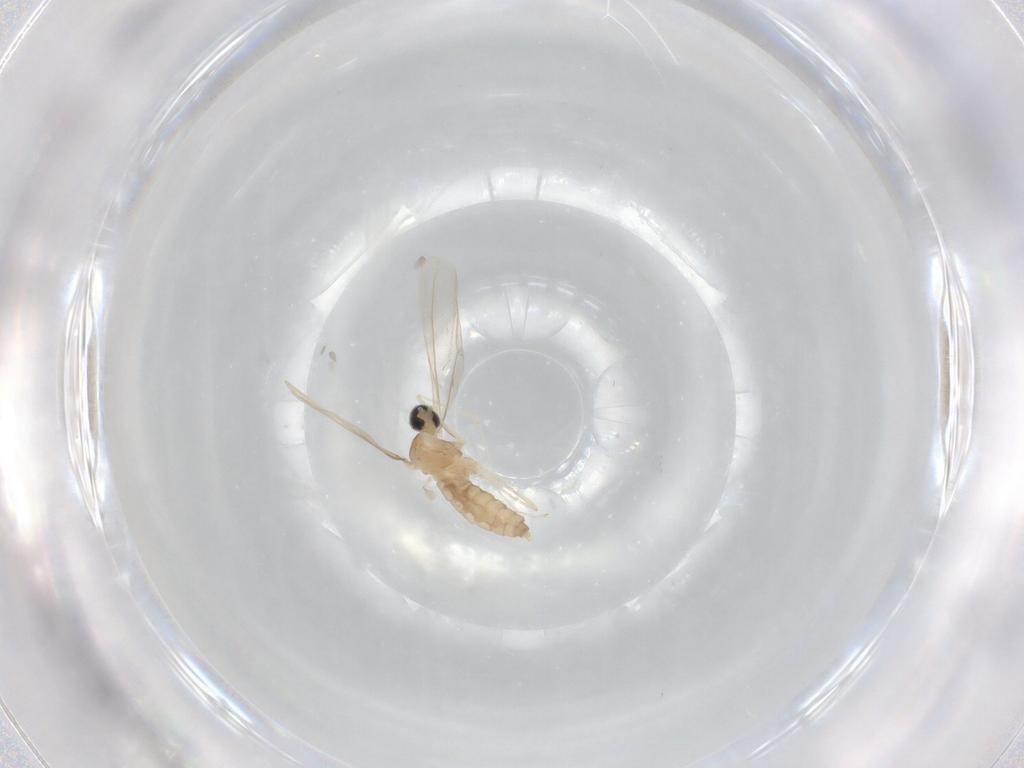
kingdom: Animalia
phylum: Arthropoda
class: Insecta
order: Diptera
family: Cecidomyiidae
